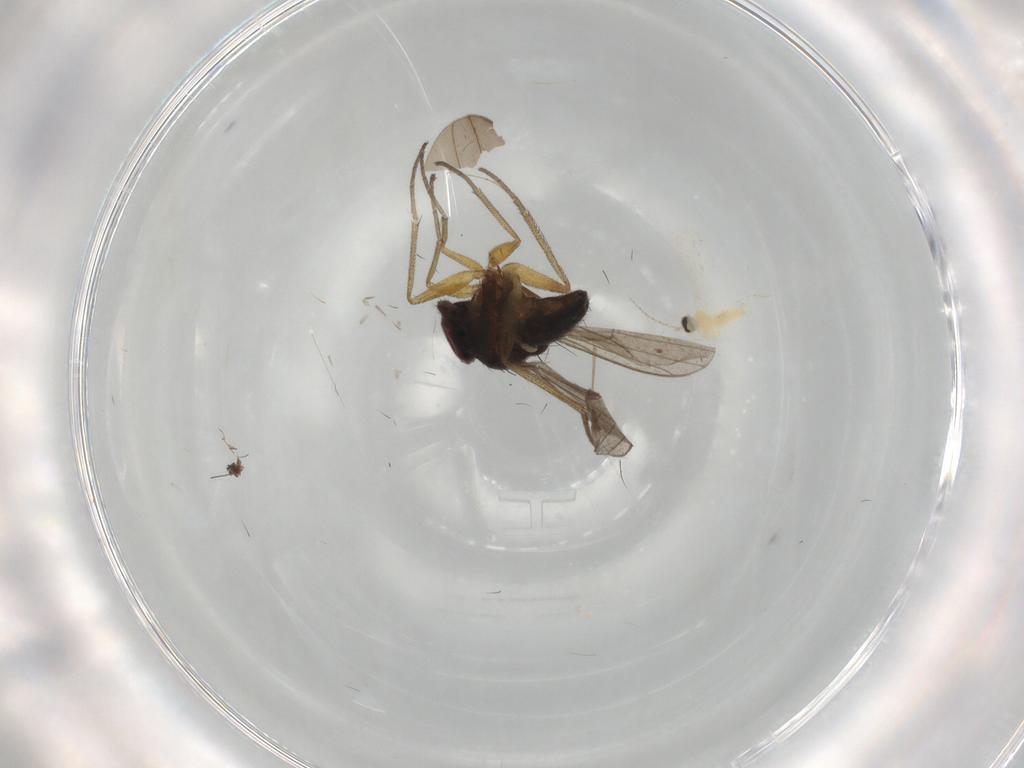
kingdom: Animalia
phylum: Arthropoda
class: Insecta
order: Diptera
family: Dolichopodidae
